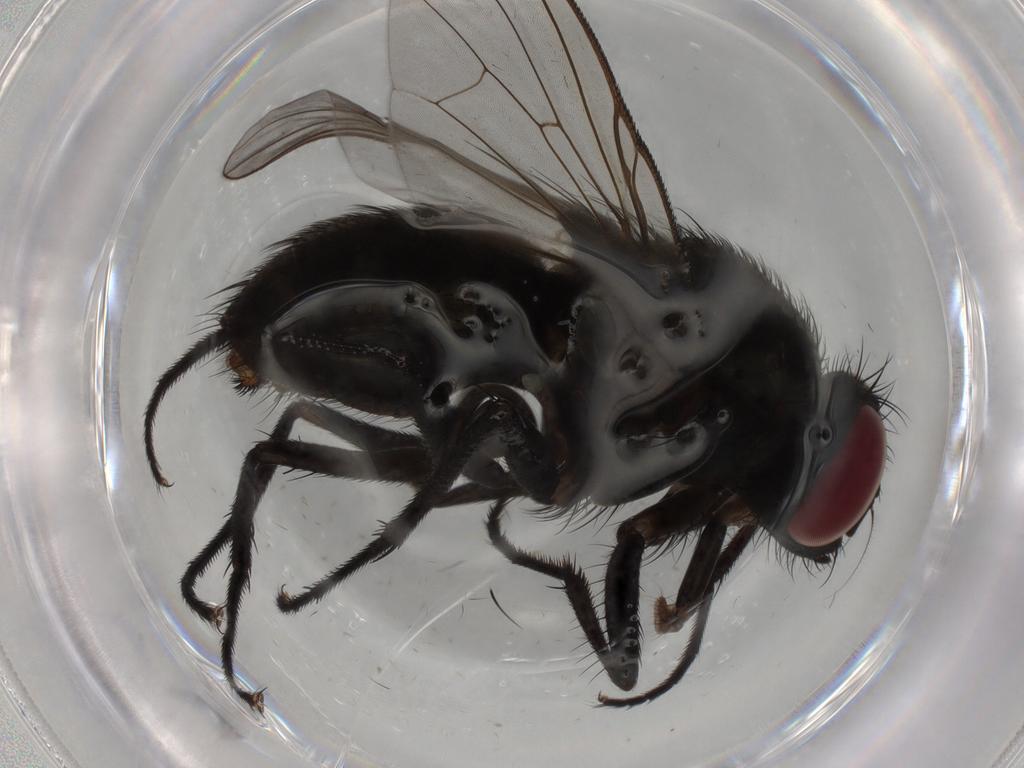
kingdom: Animalia
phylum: Arthropoda
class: Insecta
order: Diptera
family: Muscidae
